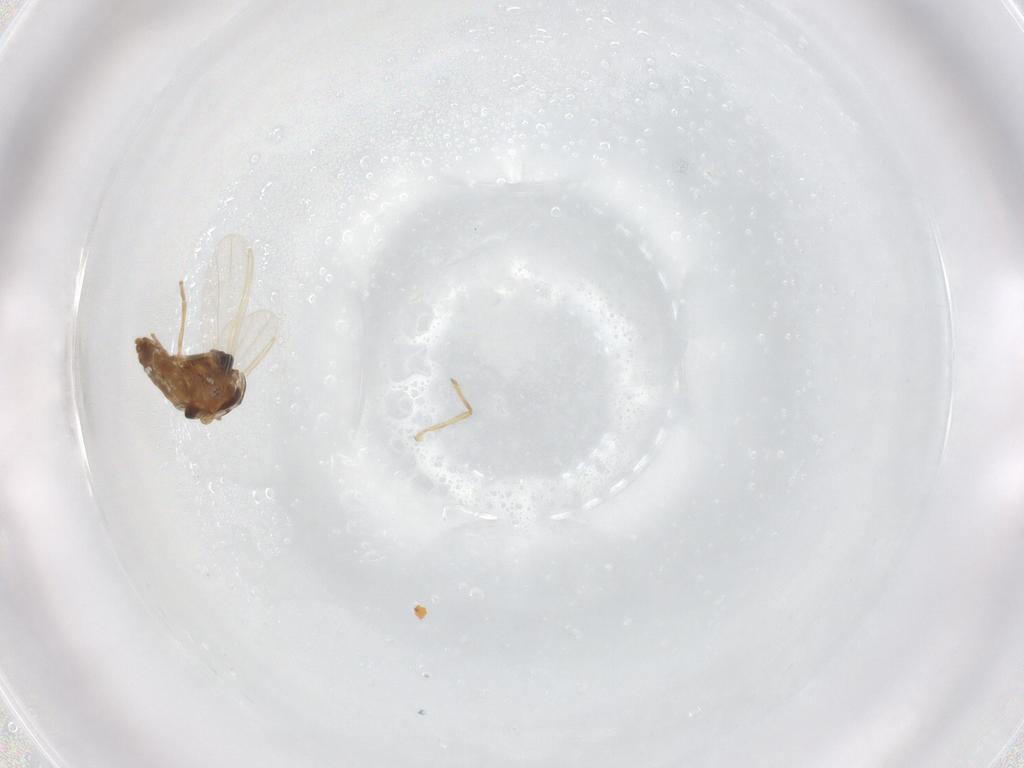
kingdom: Animalia
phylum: Arthropoda
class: Insecta
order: Diptera
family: Chironomidae
